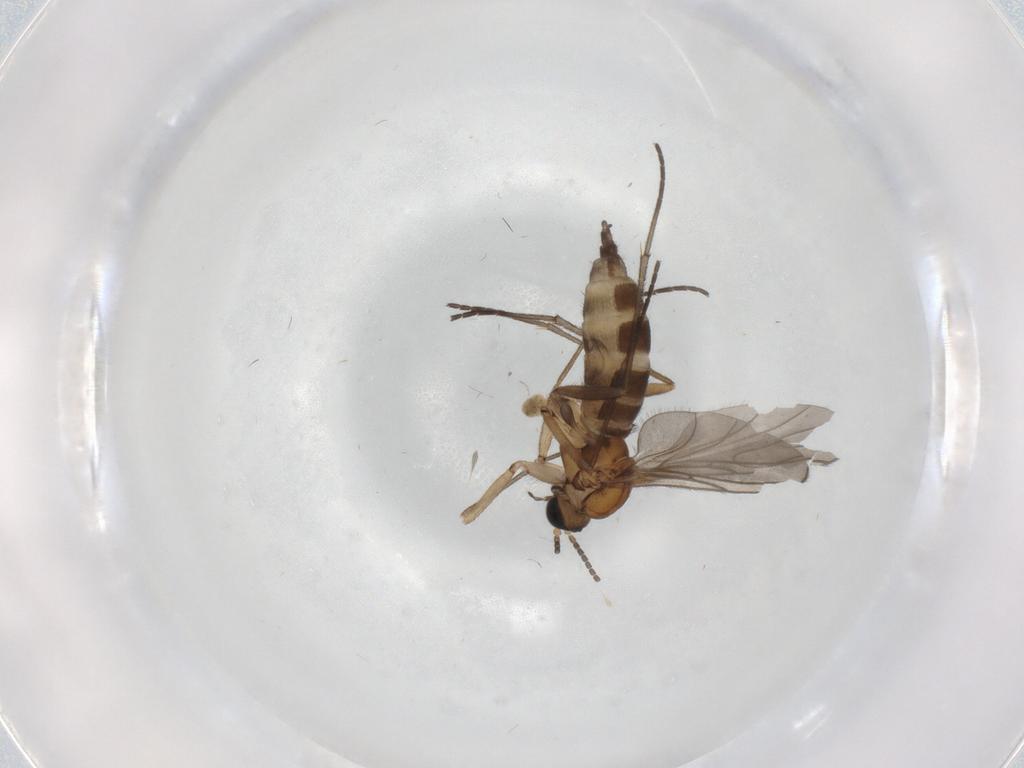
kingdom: Animalia
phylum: Arthropoda
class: Insecta
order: Diptera
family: Sciaridae
